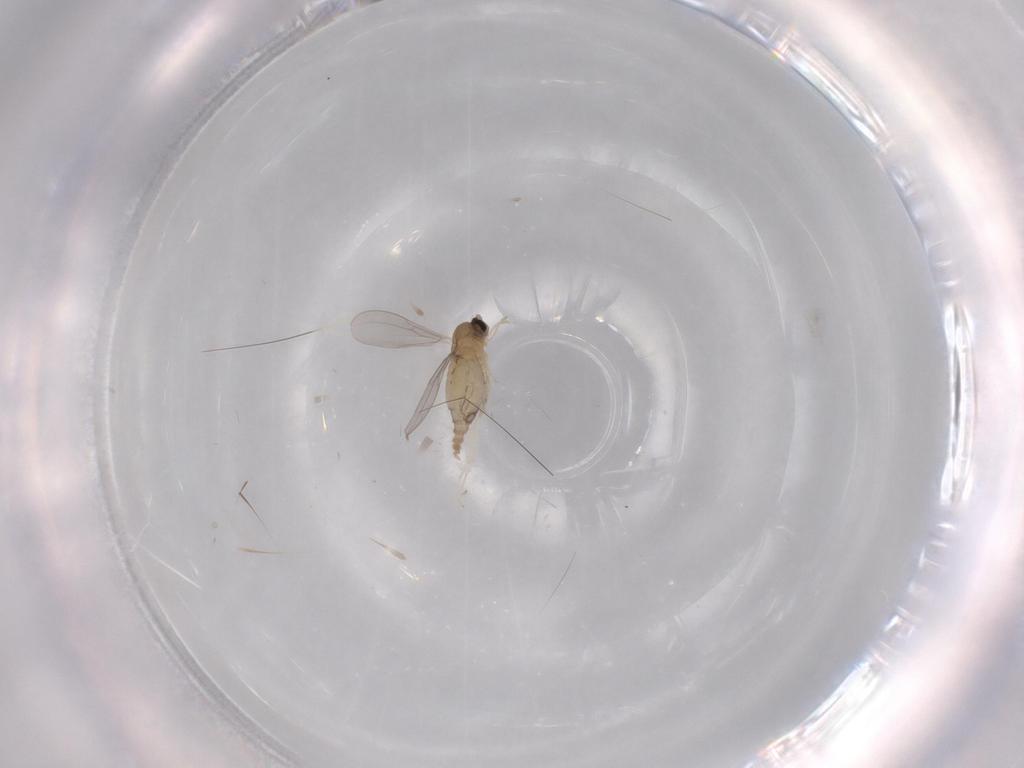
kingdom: Animalia
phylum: Arthropoda
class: Insecta
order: Diptera
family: Cecidomyiidae
